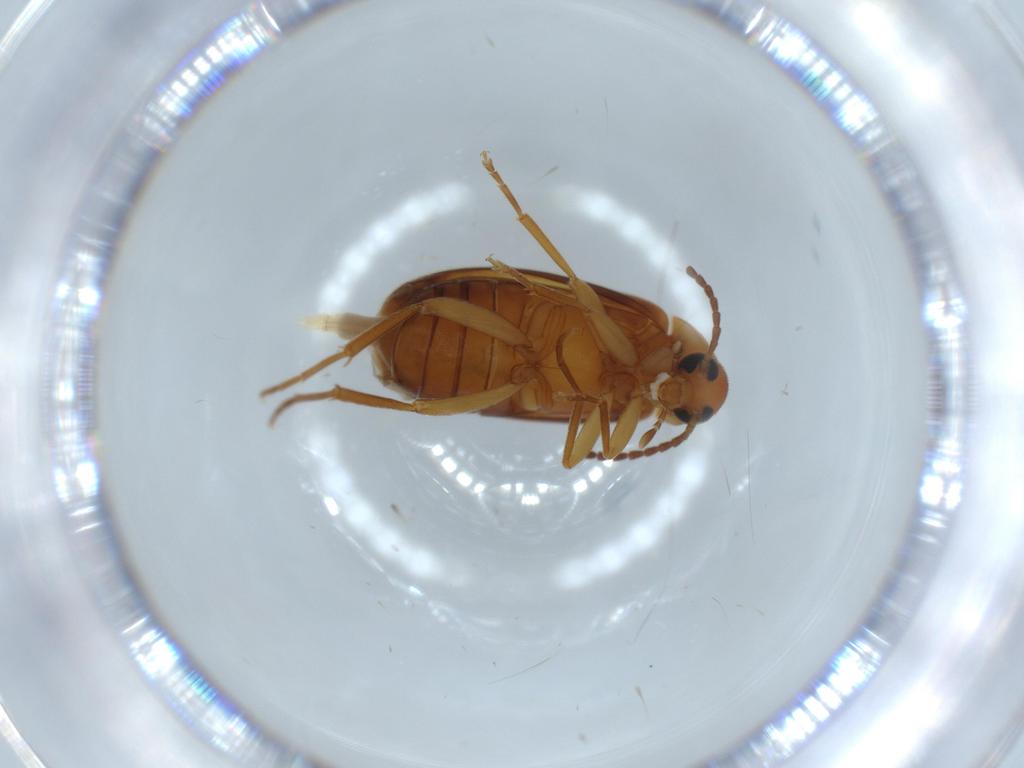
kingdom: Animalia
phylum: Arthropoda
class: Insecta
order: Coleoptera
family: Scraptiidae
